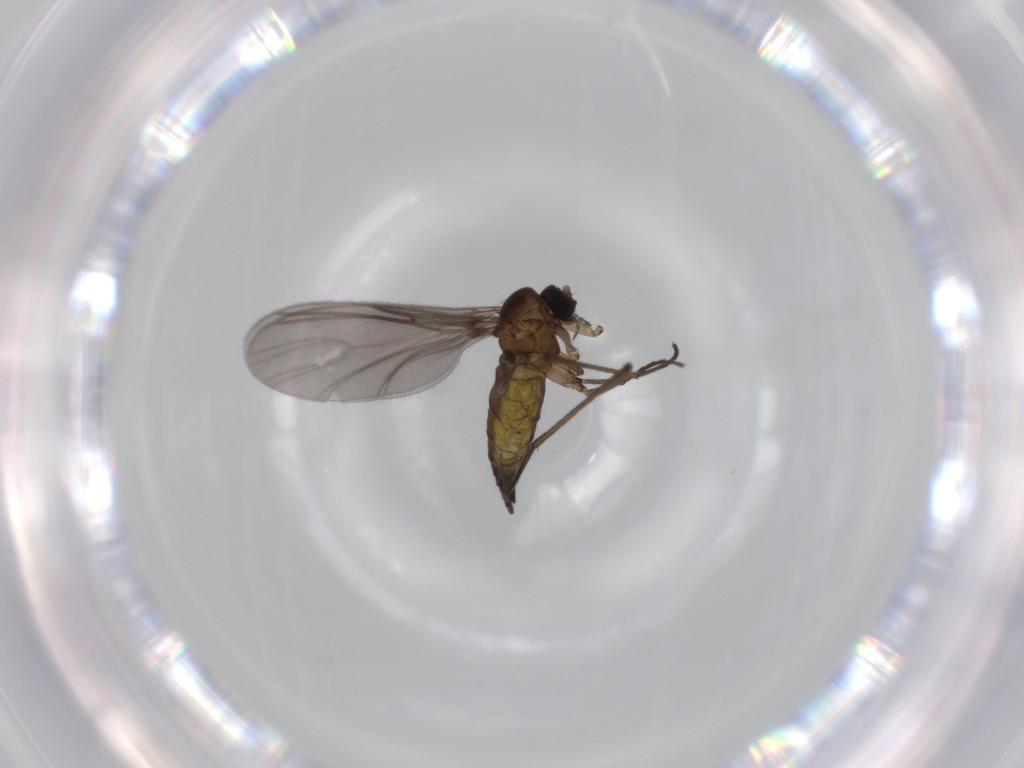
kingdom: Animalia
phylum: Arthropoda
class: Insecta
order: Diptera
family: Sciaridae
